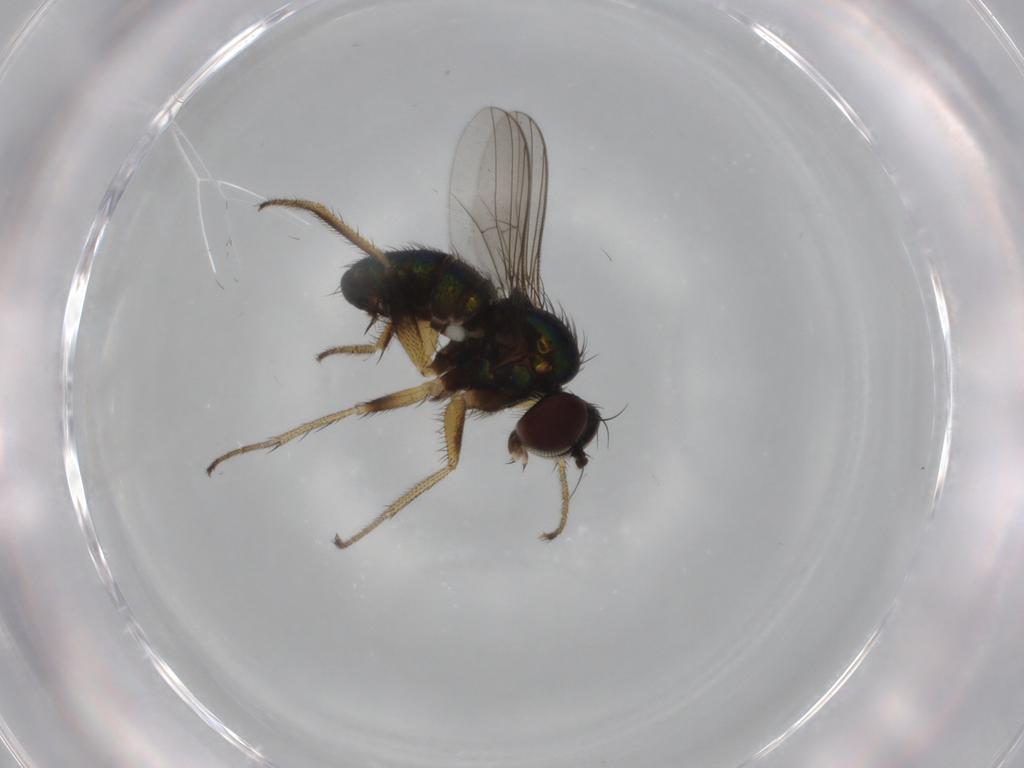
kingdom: Animalia
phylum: Arthropoda
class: Insecta
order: Diptera
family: Dolichopodidae
